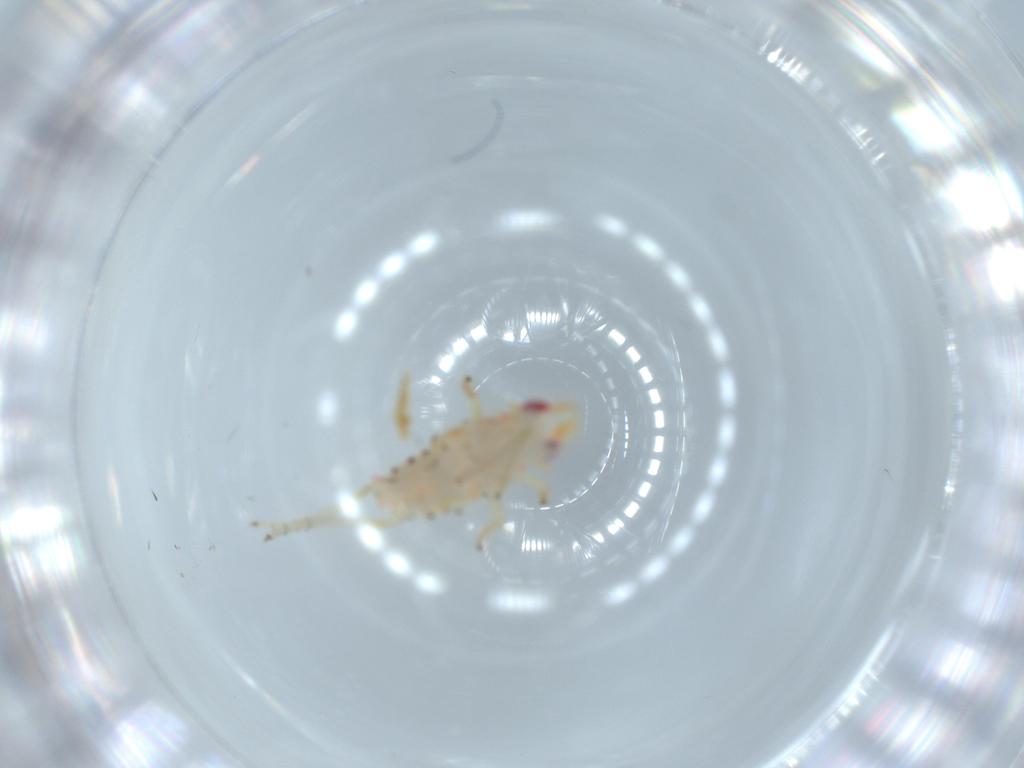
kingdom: Animalia
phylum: Arthropoda
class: Insecta
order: Hemiptera
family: Tropiduchidae
